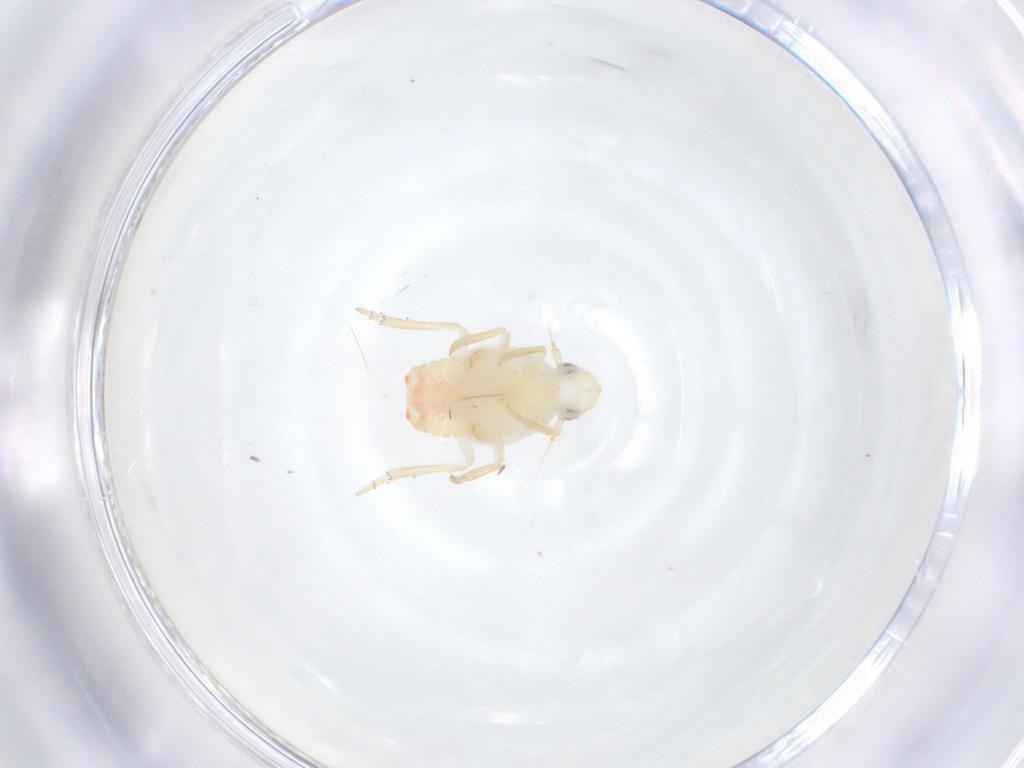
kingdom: Animalia
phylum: Arthropoda
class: Insecta
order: Hemiptera
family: Flatidae
